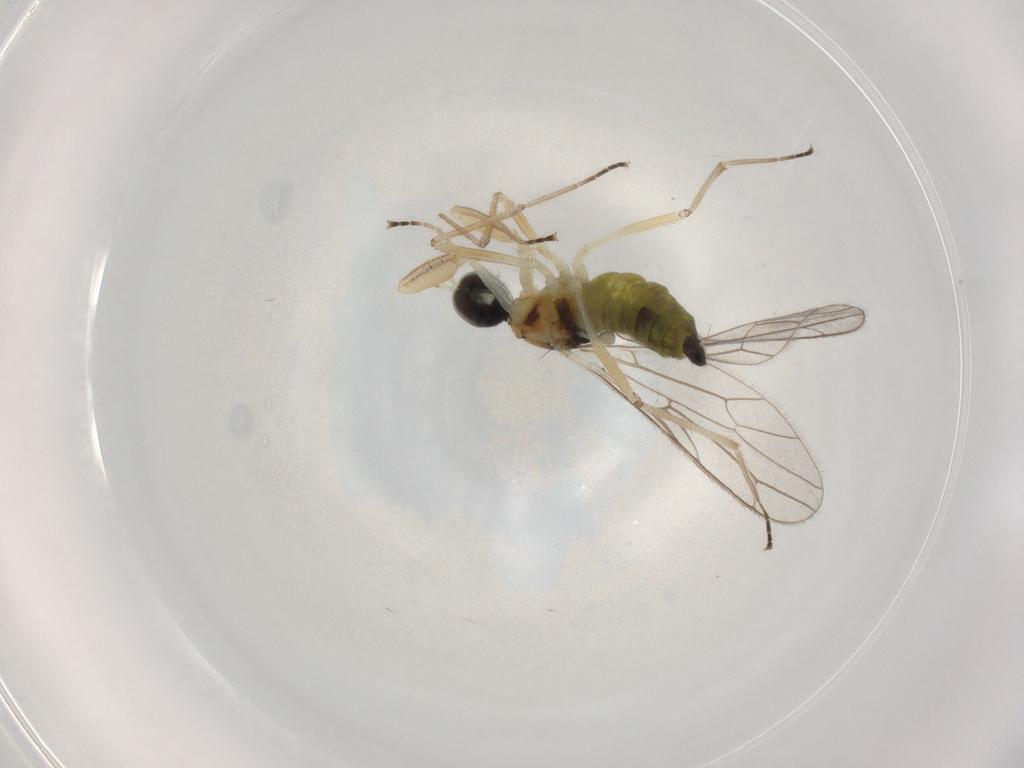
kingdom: Animalia
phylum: Arthropoda
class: Insecta
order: Diptera
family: Empididae
